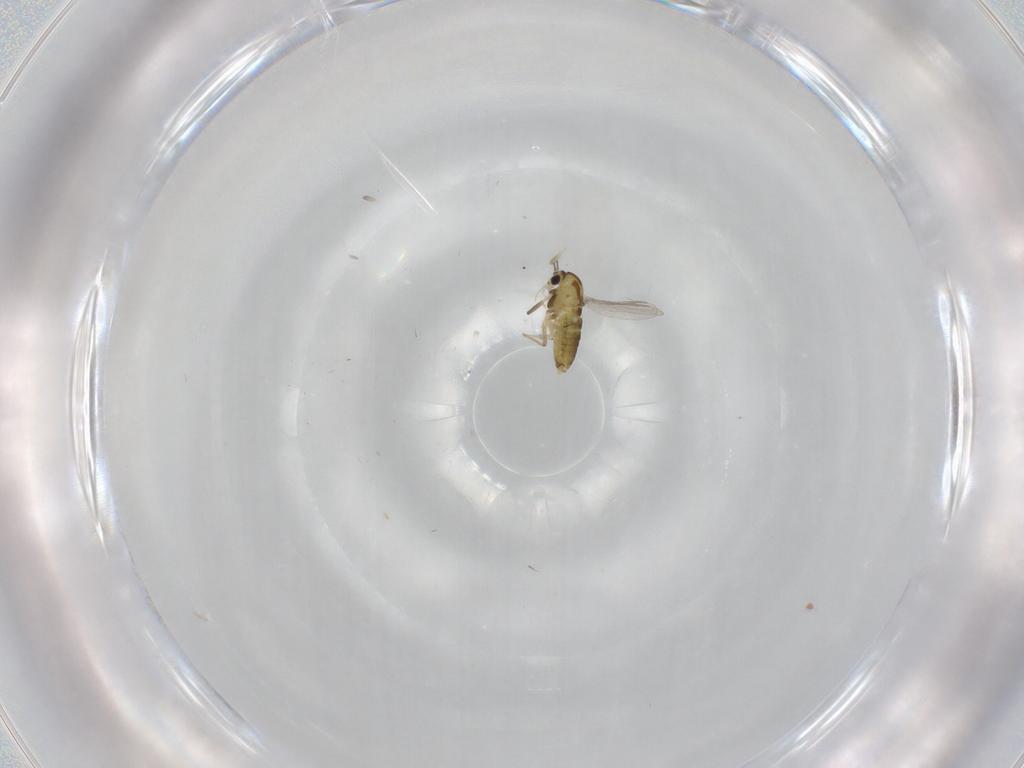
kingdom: Animalia
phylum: Arthropoda
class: Insecta
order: Diptera
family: Chironomidae
